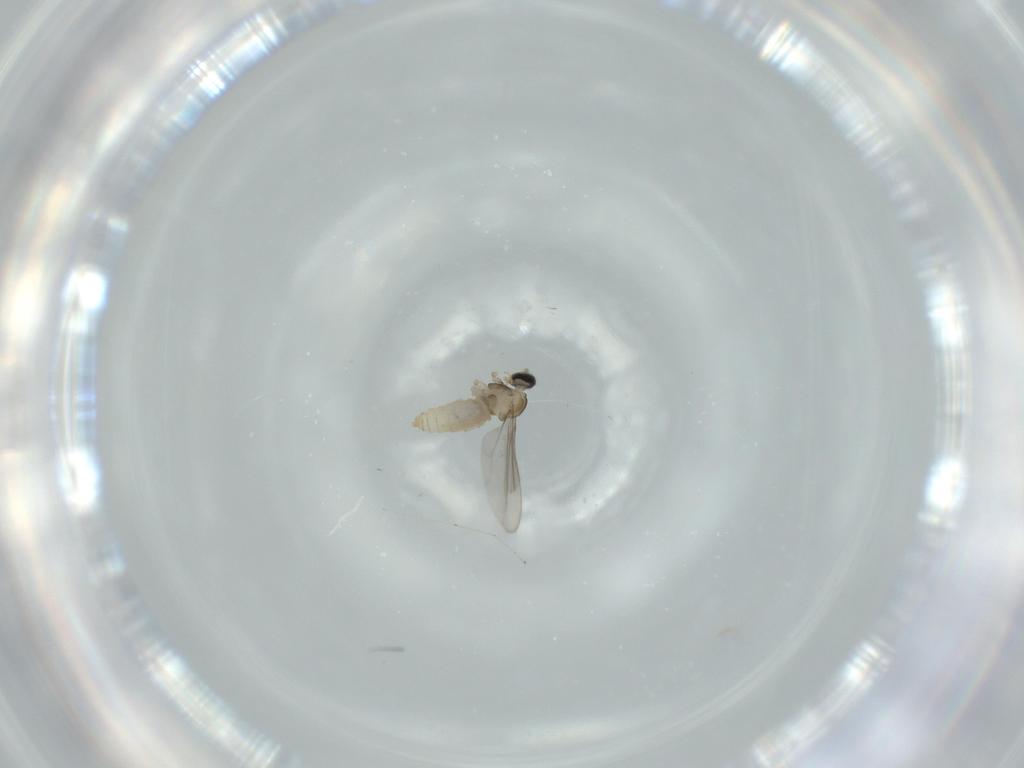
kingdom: Animalia
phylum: Arthropoda
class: Insecta
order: Diptera
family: Cecidomyiidae
